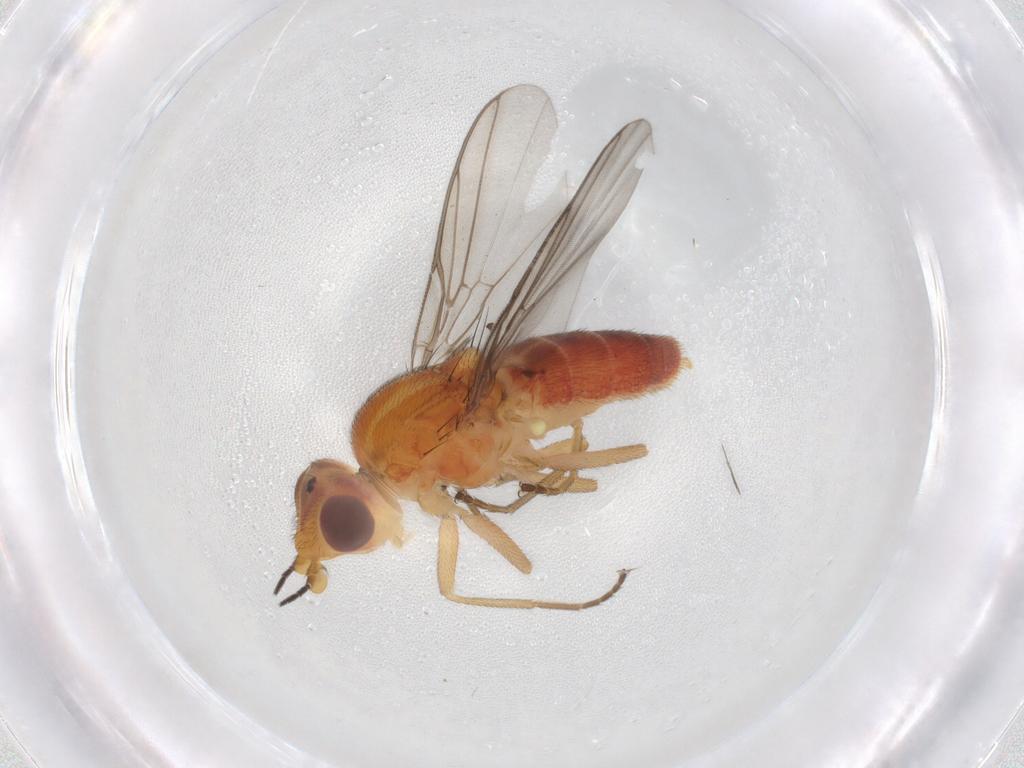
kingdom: Animalia
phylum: Arthropoda
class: Insecta
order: Diptera
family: Chloropidae
